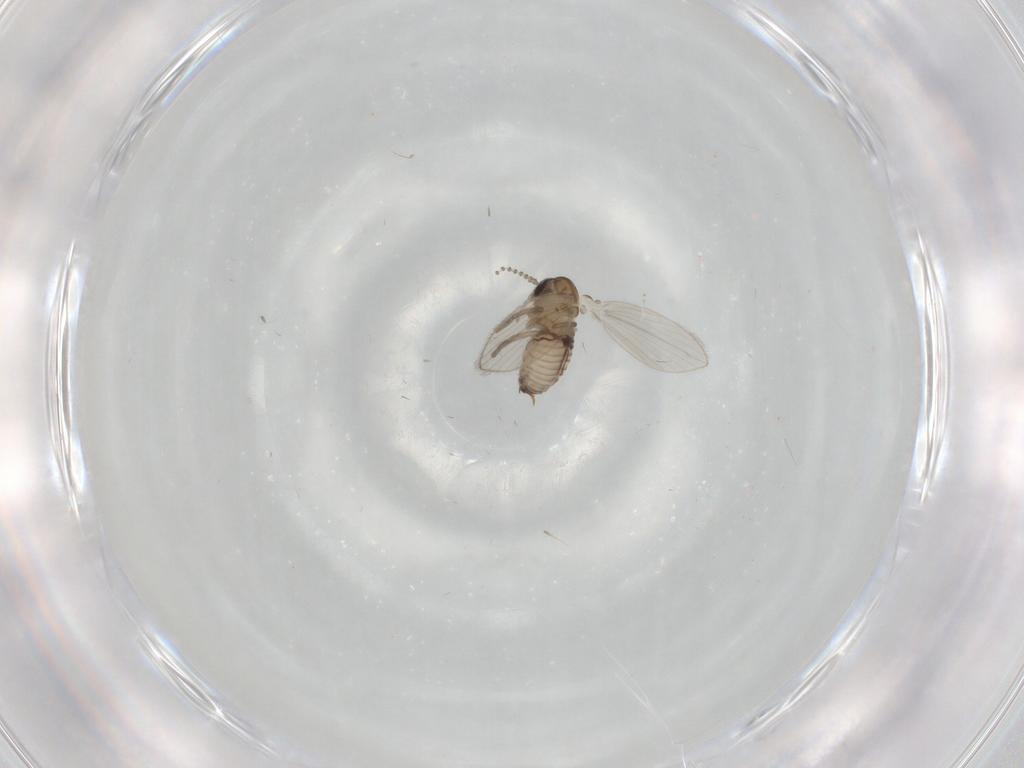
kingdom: Animalia
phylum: Arthropoda
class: Insecta
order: Diptera
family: Psychodidae
